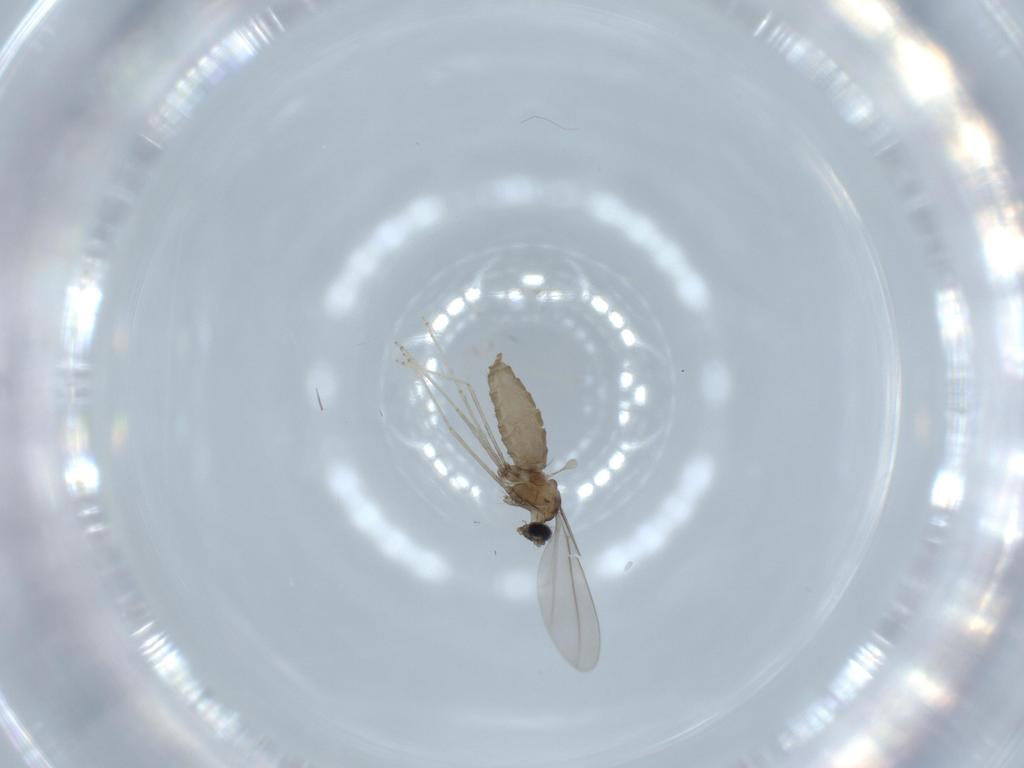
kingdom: Animalia
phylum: Arthropoda
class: Insecta
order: Diptera
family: Cecidomyiidae
